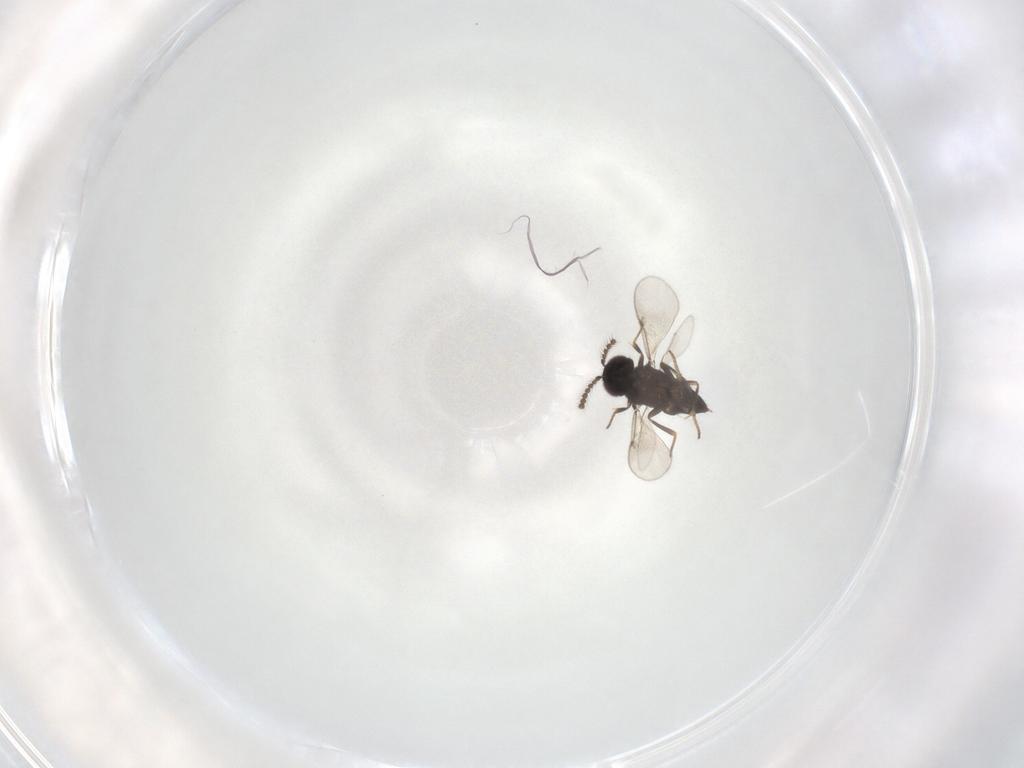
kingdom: Animalia
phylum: Arthropoda
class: Insecta
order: Hymenoptera
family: Encyrtidae
